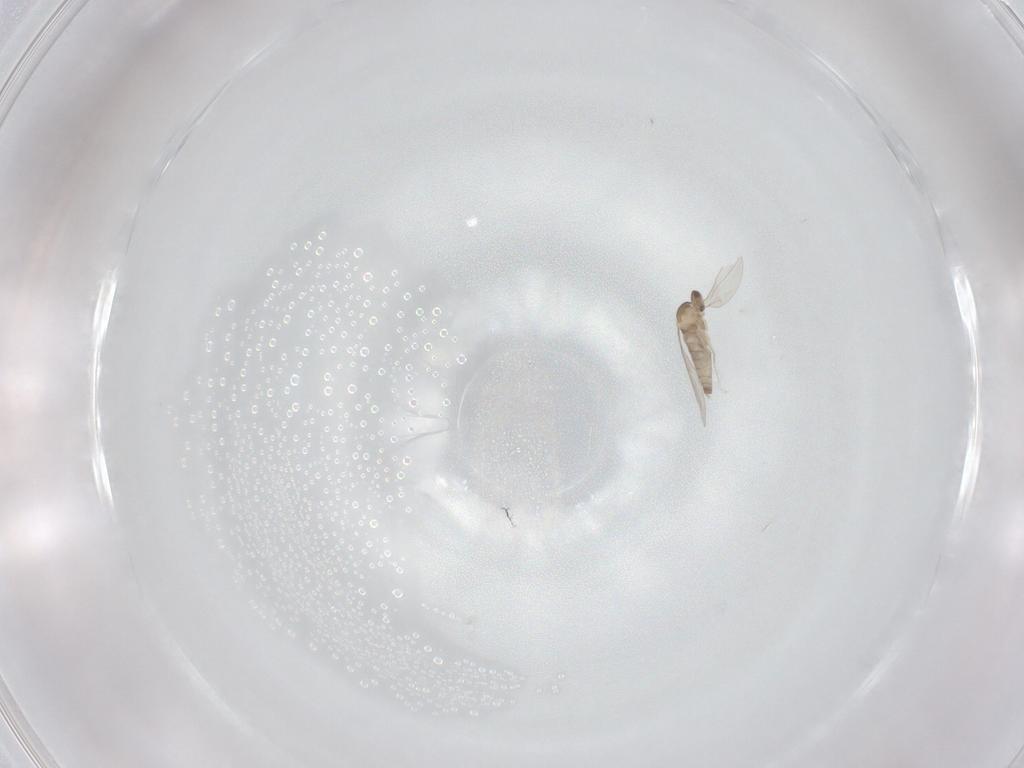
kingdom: Animalia
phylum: Arthropoda
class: Insecta
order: Diptera
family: Cecidomyiidae
